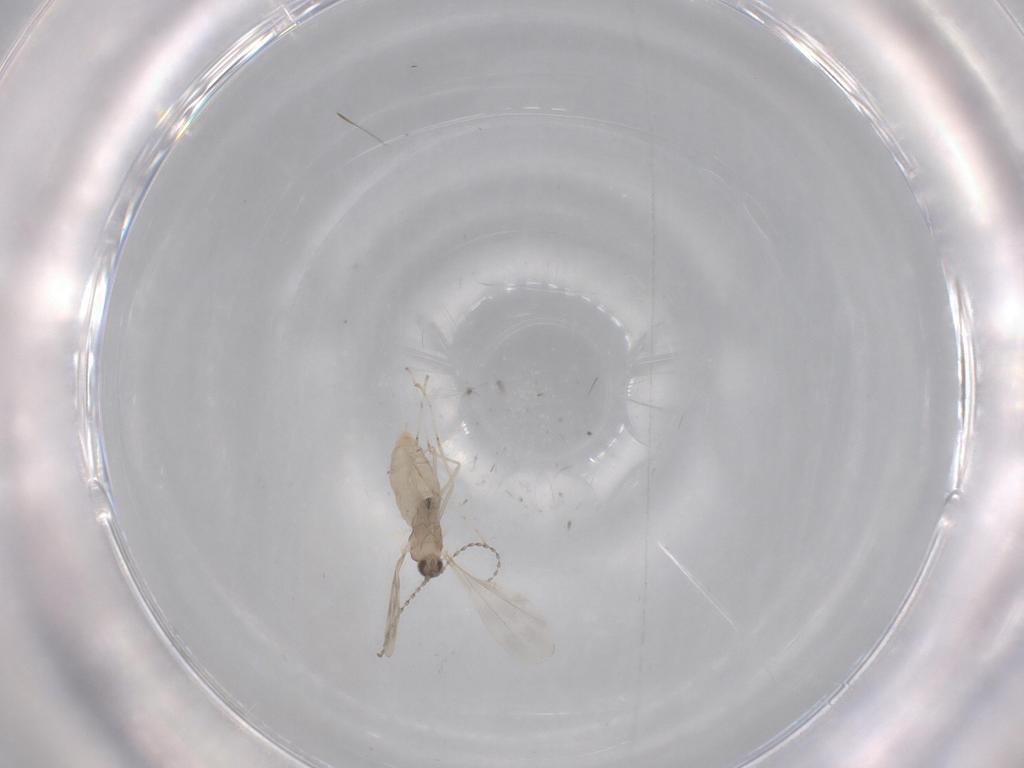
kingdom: Animalia
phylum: Arthropoda
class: Insecta
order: Diptera
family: Cecidomyiidae
